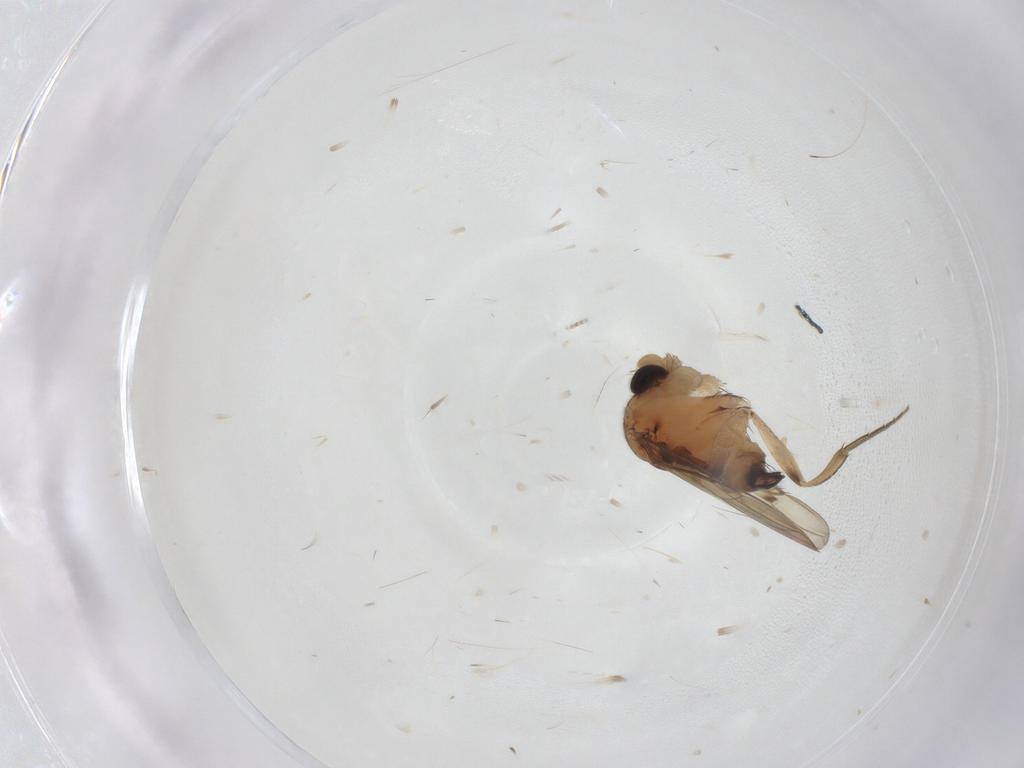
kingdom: Animalia
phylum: Arthropoda
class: Insecta
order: Diptera
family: Phoridae
